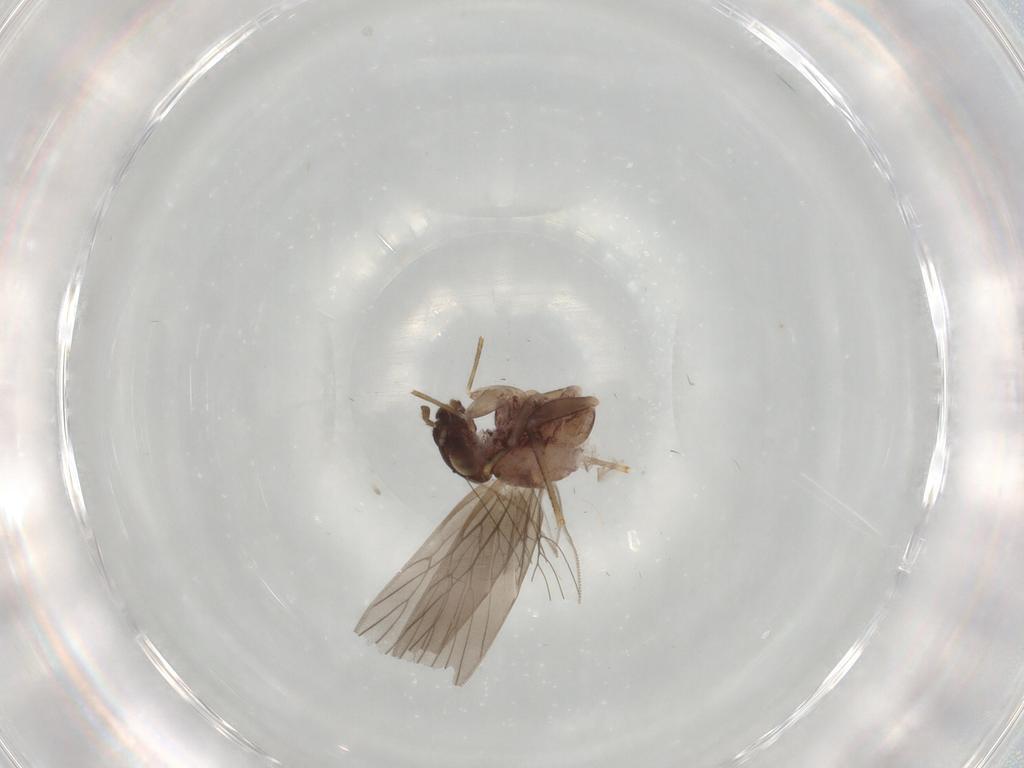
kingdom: Animalia
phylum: Arthropoda
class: Insecta
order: Psocodea
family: Lepidopsocidae
